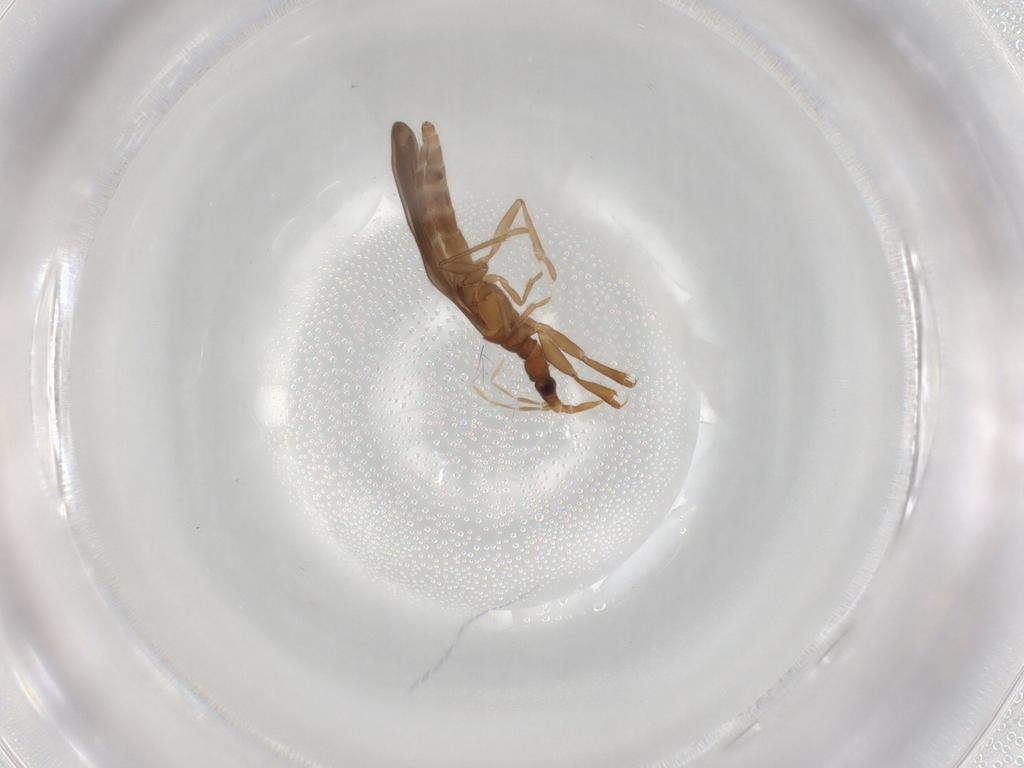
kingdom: Animalia
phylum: Arthropoda
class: Insecta
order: Hemiptera
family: Enicocephalidae
